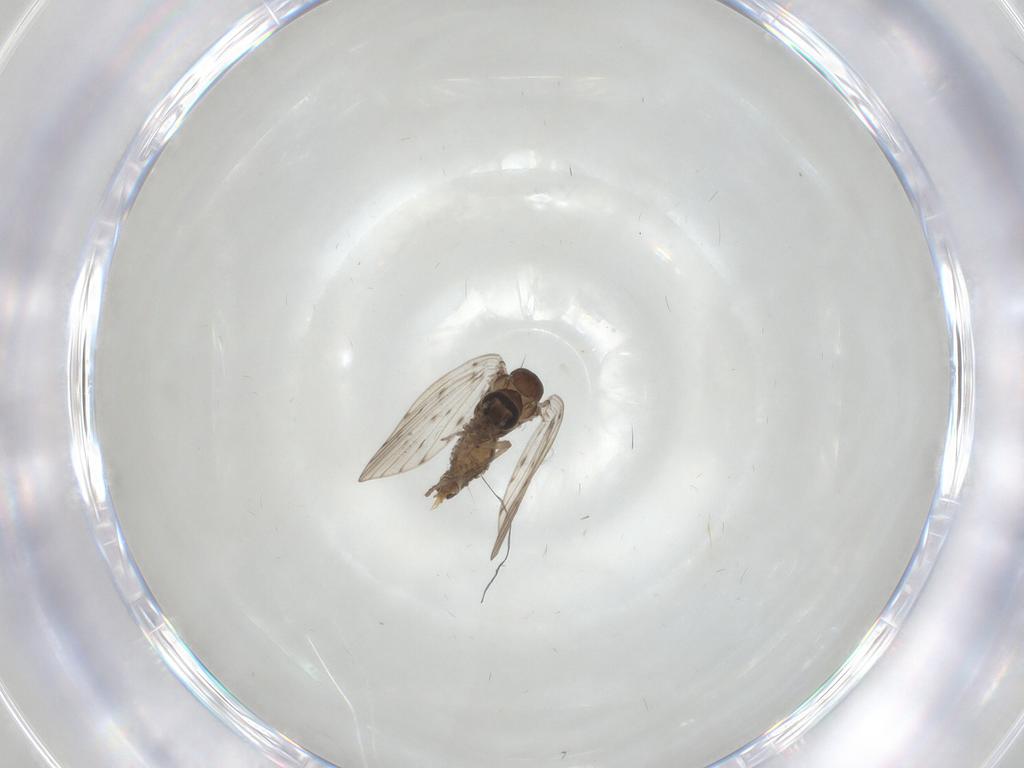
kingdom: Animalia
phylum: Arthropoda
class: Insecta
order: Diptera
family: Psychodidae
